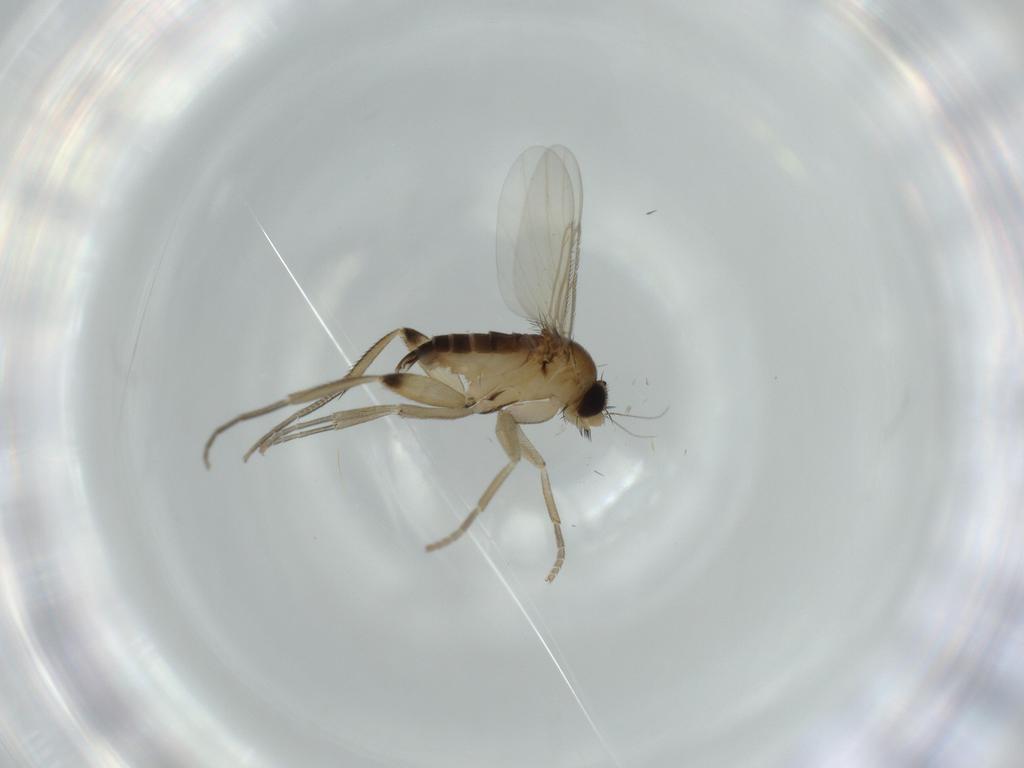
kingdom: Animalia
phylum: Arthropoda
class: Insecta
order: Diptera
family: Phoridae
